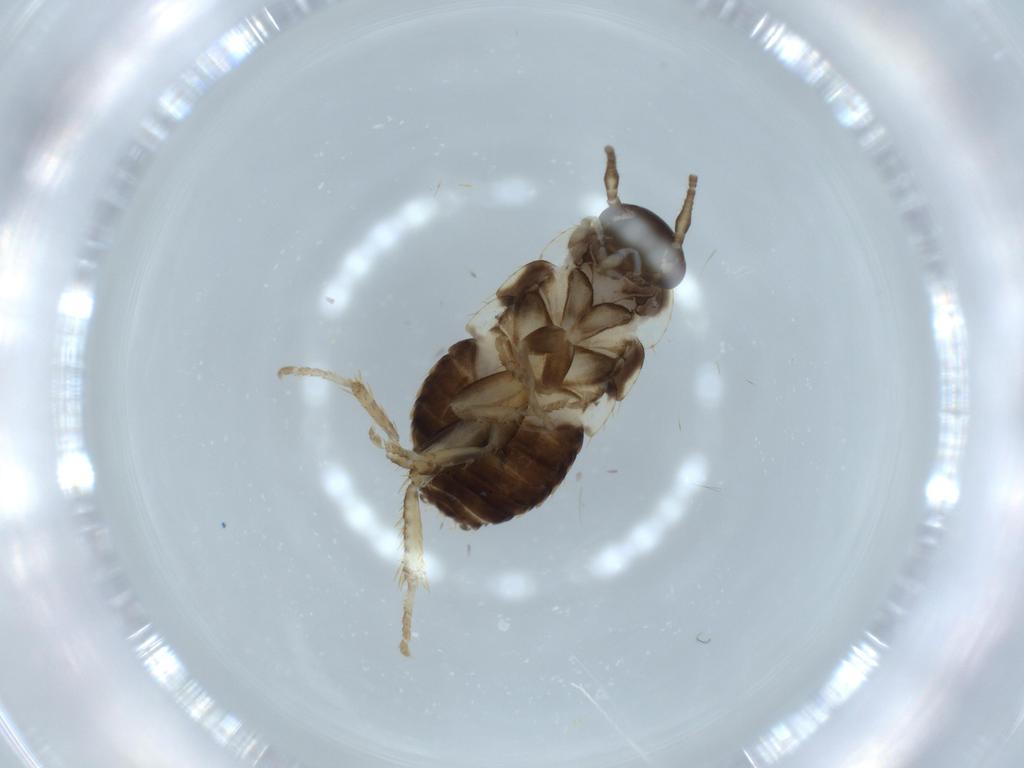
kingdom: Animalia
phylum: Arthropoda
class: Insecta
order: Blattodea
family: Ectobiidae
